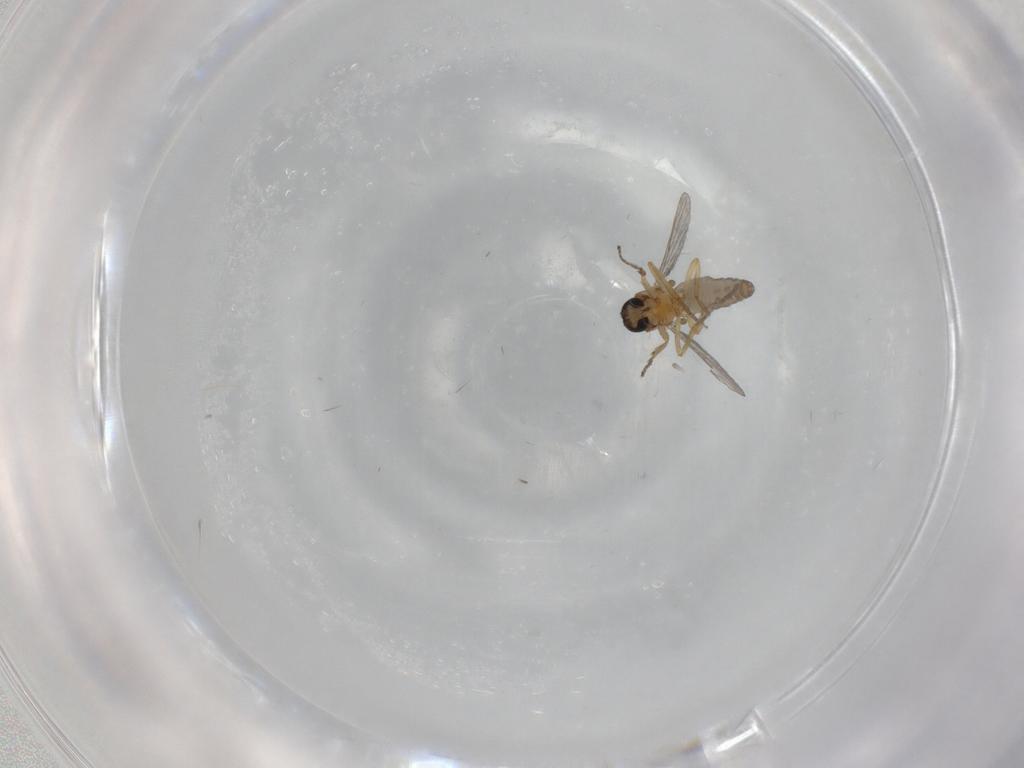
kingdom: Animalia
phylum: Arthropoda
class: Insecta
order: Diptera
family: Ceratopogonidae
